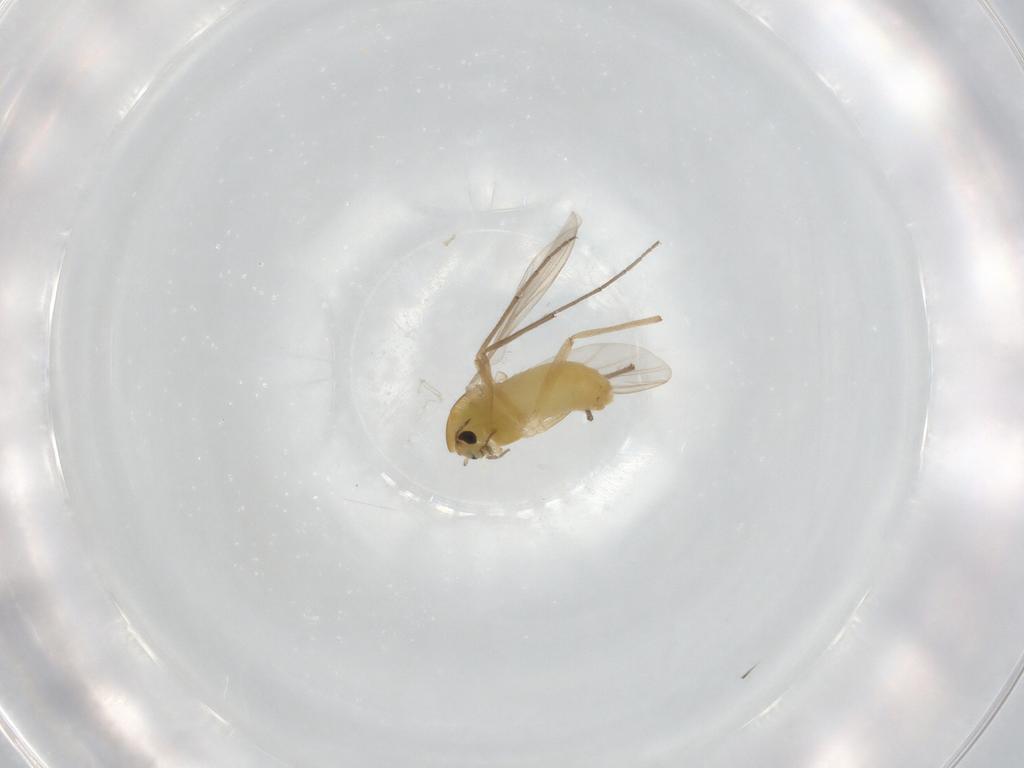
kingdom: Animalia
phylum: Arthropoda
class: Insecta
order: Diptera
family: Chironomidae
